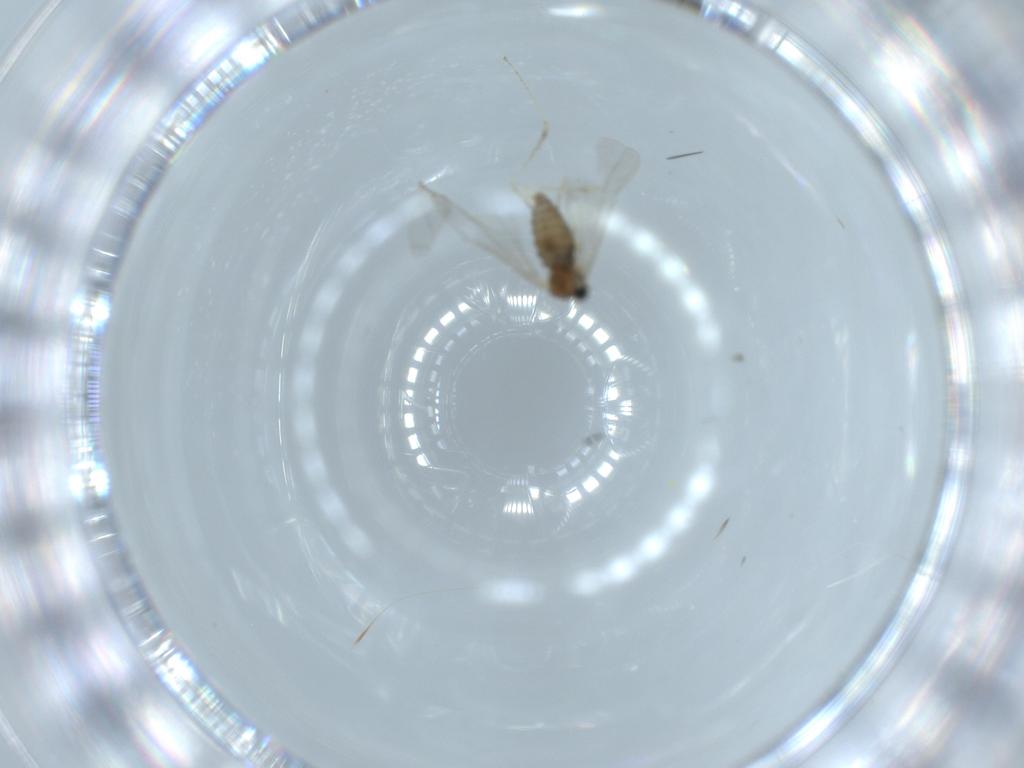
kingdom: Animalia
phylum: Arthropoda
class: Insecta
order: Diptera
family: Cecidomyiidae
